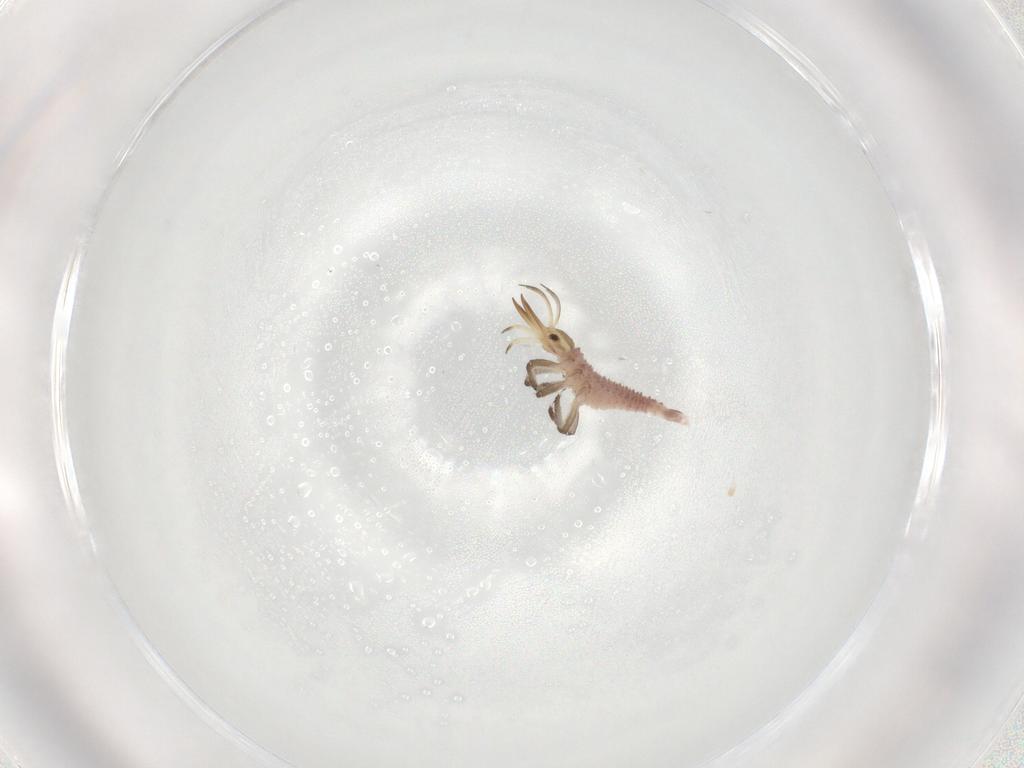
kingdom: Animalia
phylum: Arthropoda
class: Insecta
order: Neuroptera
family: Chrysopidae
